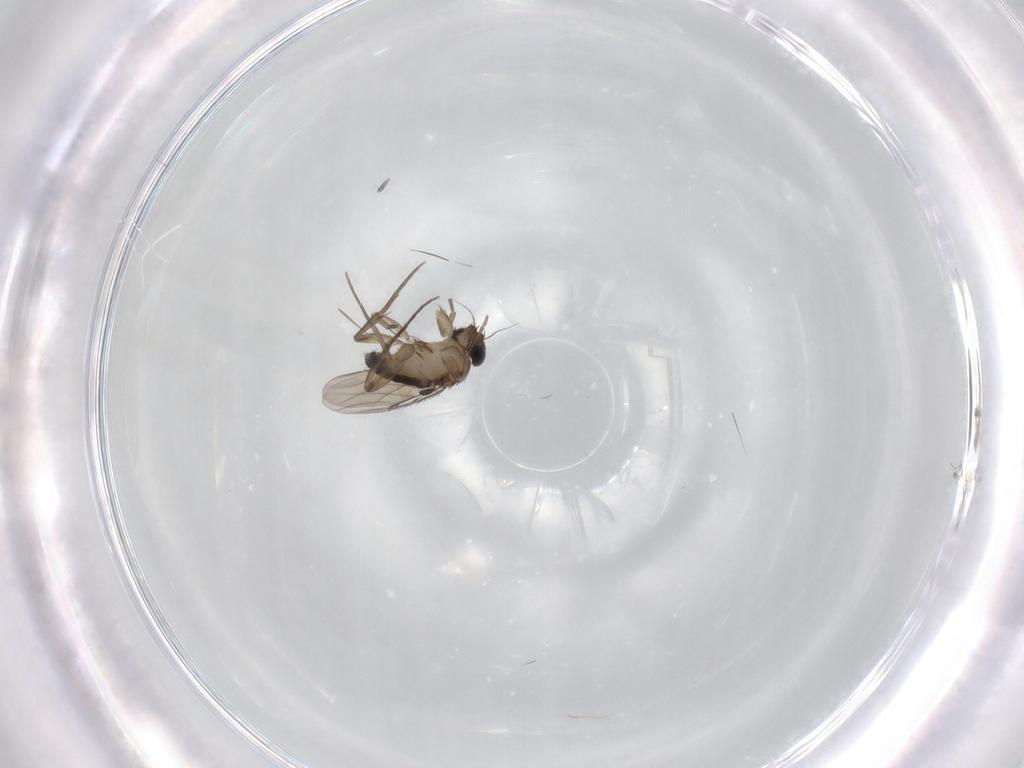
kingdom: Animalia
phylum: Arthropoda
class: Insecta
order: Diptera
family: Phoridae
